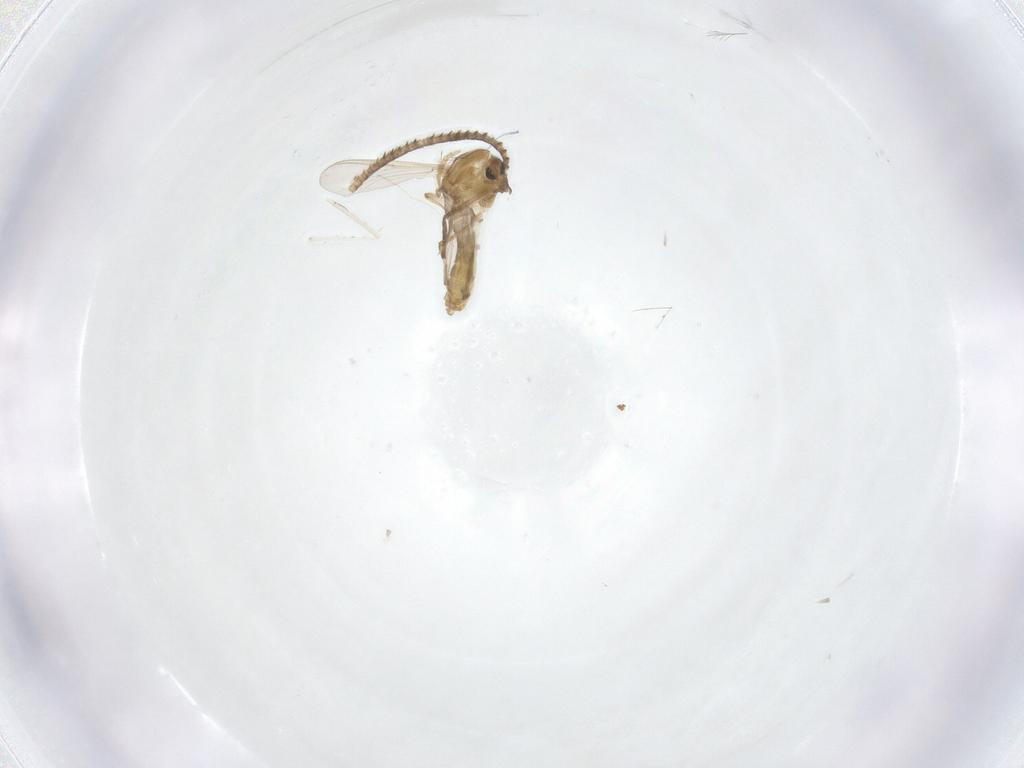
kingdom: Animalia
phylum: Arthropoda
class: Insecta
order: Diptera
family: Chironomidae
